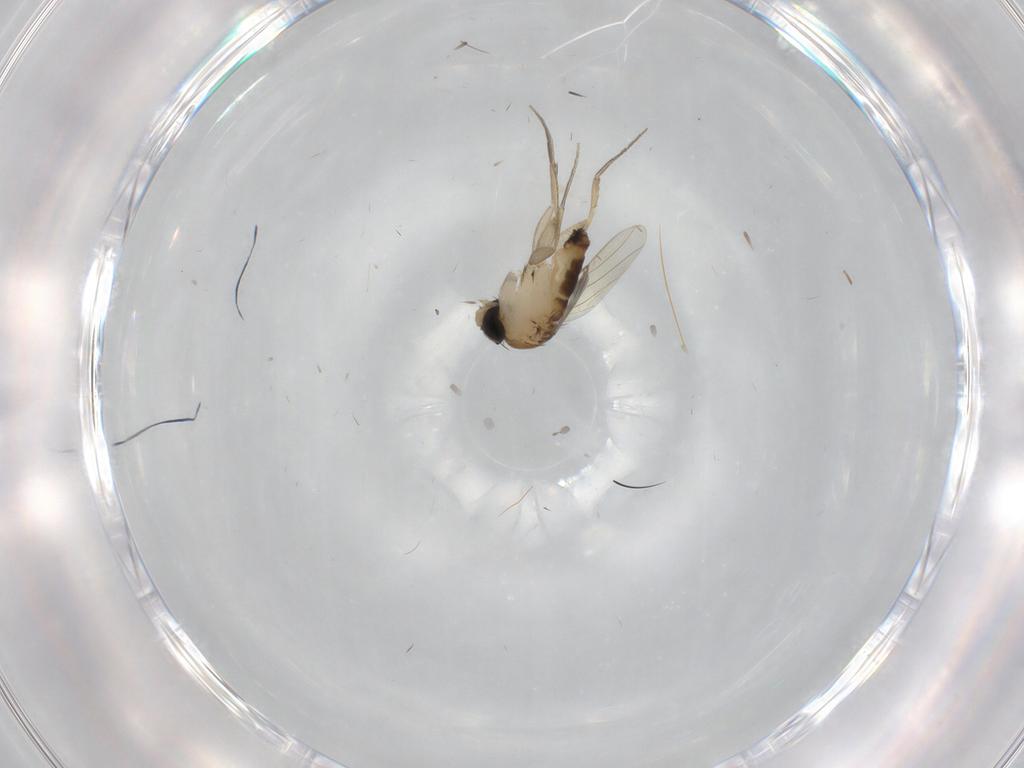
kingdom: Animalia
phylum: Arthropoda
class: Insecta
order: Diptera
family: Phoridae
